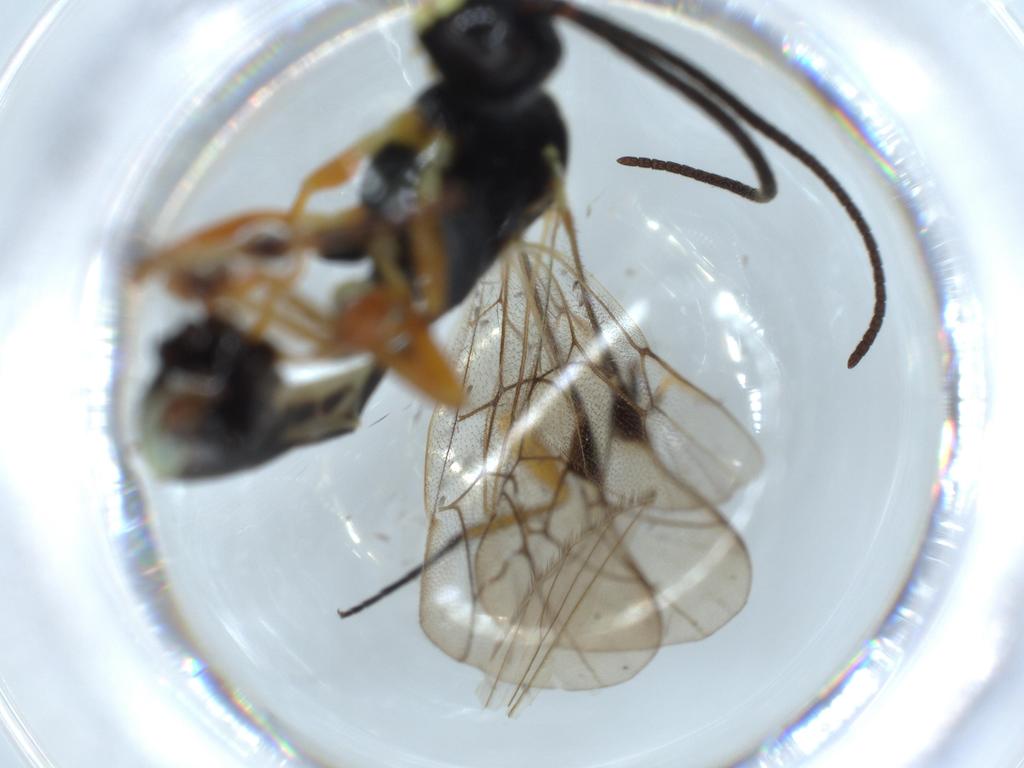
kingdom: Animalia
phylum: Arthropoda
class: Insecta
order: Hymenoptera
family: Ichneumonidae
